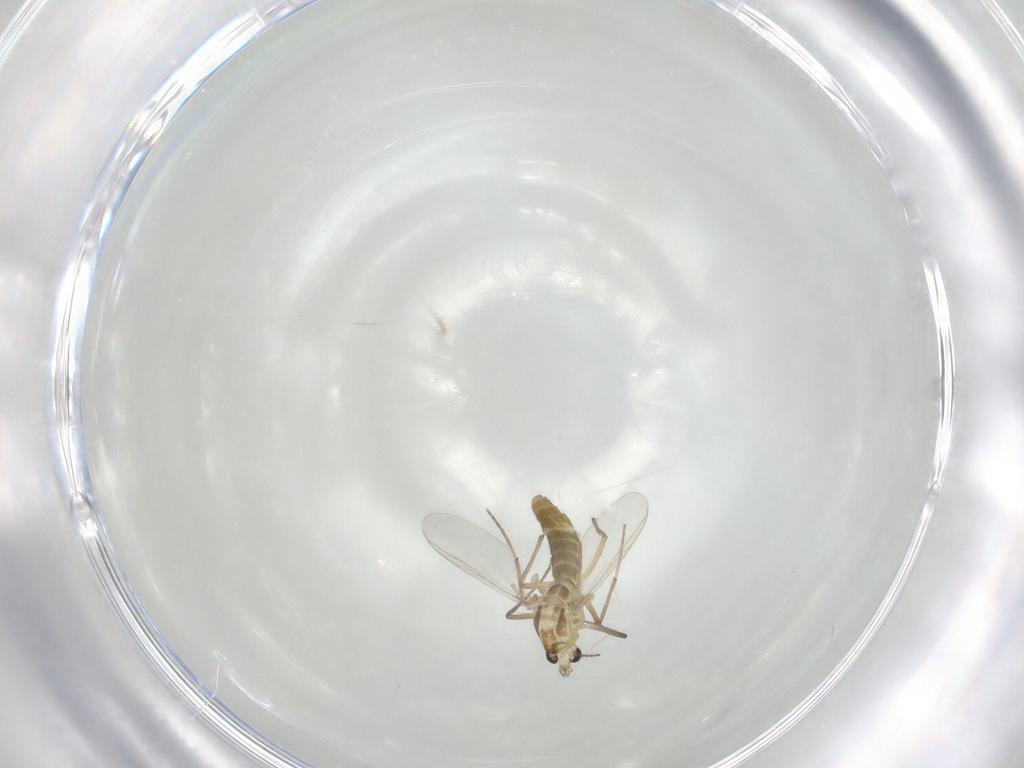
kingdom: Animalia
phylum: Arthropoda
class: Insecta
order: Diptera
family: Chironomidae
